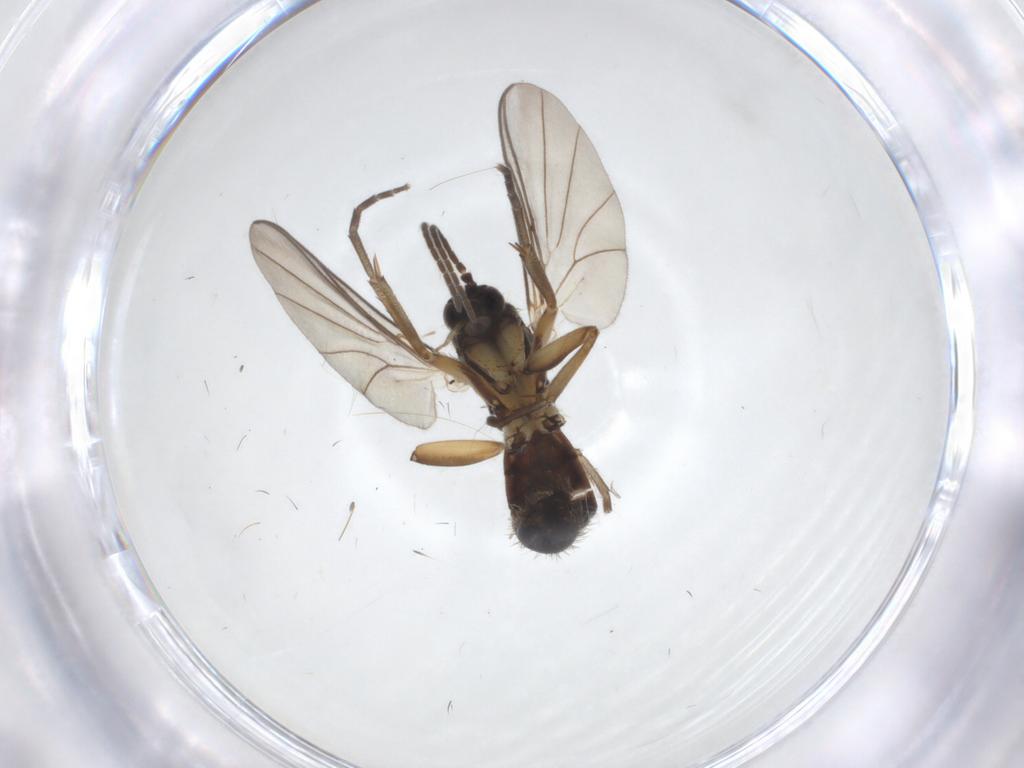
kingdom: Animalia
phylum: Arthropoda
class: Insecta
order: Diptera
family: Mycetophilidae
